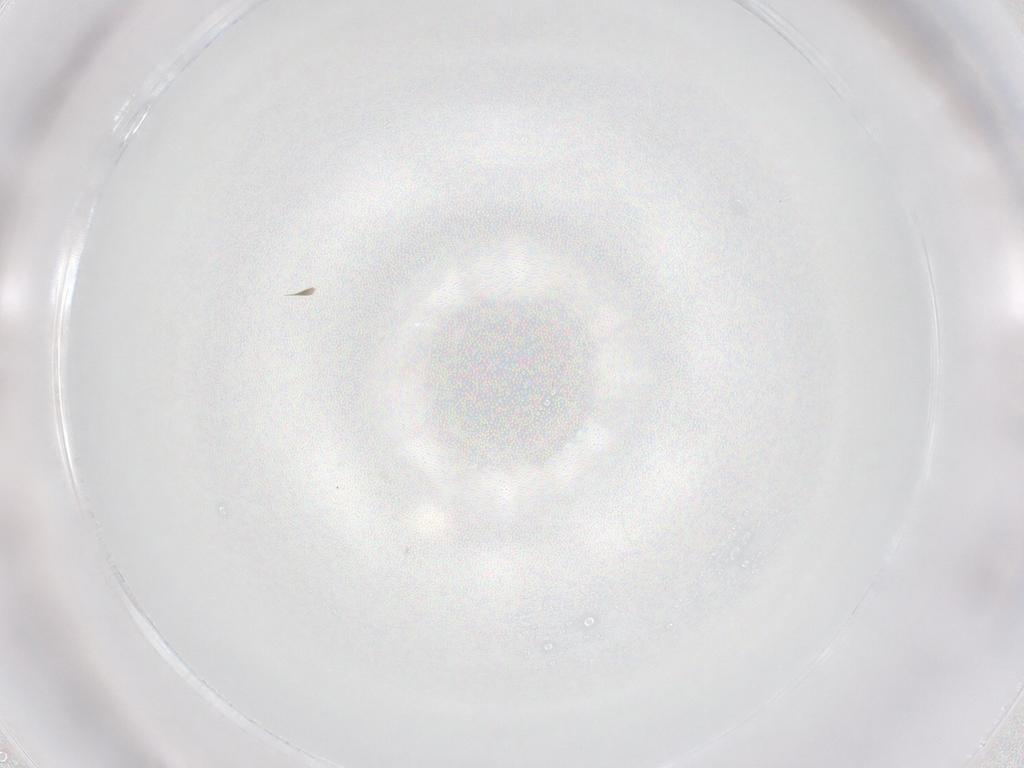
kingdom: Animalia
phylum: Arthropoda
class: Insecta
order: Hymenoptera
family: Mymaridae
